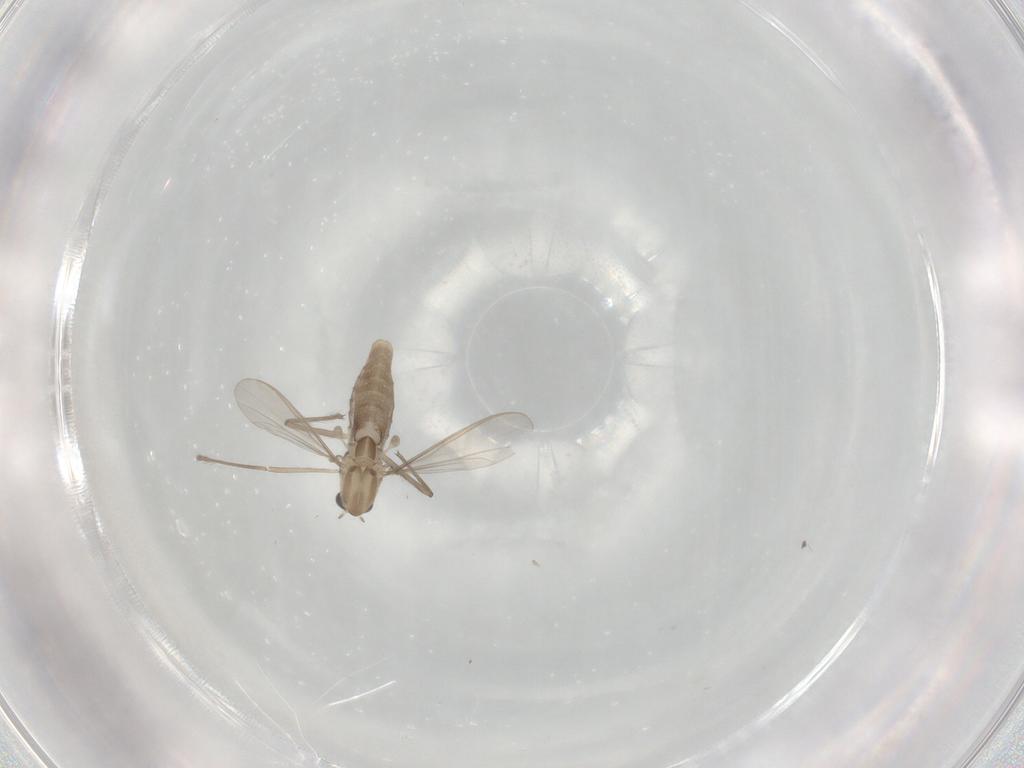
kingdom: Animalia
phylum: Arthropoda
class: Insecta
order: Diptera
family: Chironomidae
